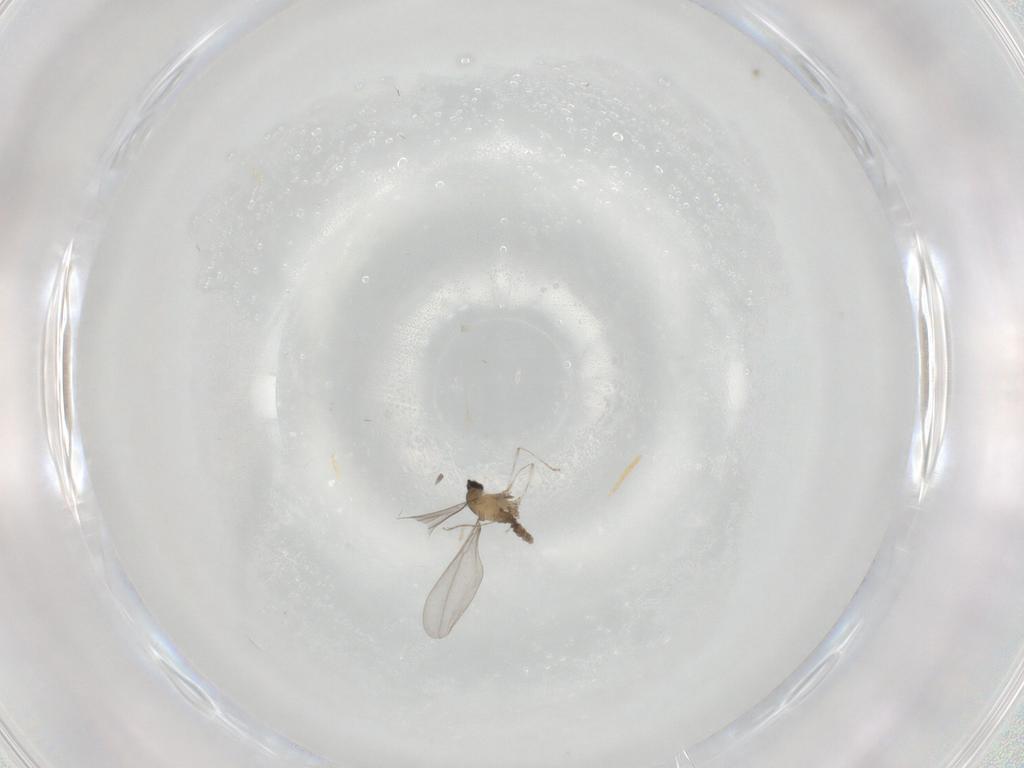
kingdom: Animalia
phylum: Arthropoda
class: Insecta
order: Diptera
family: Cecidomyiidae
